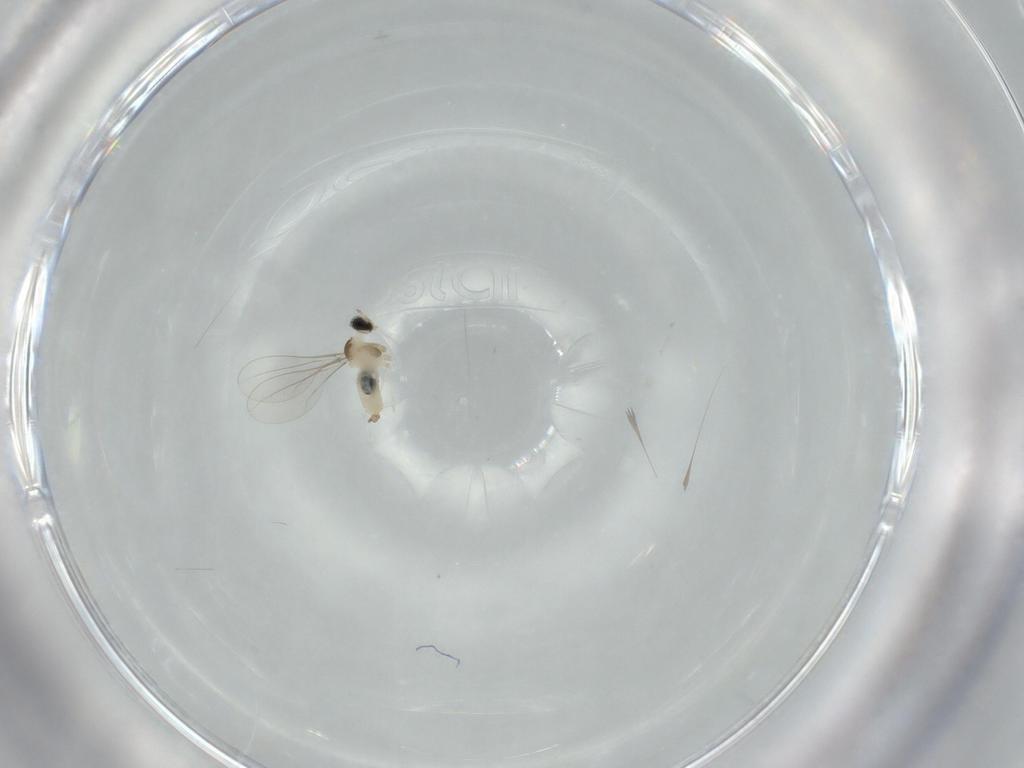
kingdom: Animalia
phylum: Arthropoda
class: Insecta
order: Diptera
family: Cecidomyiidae
